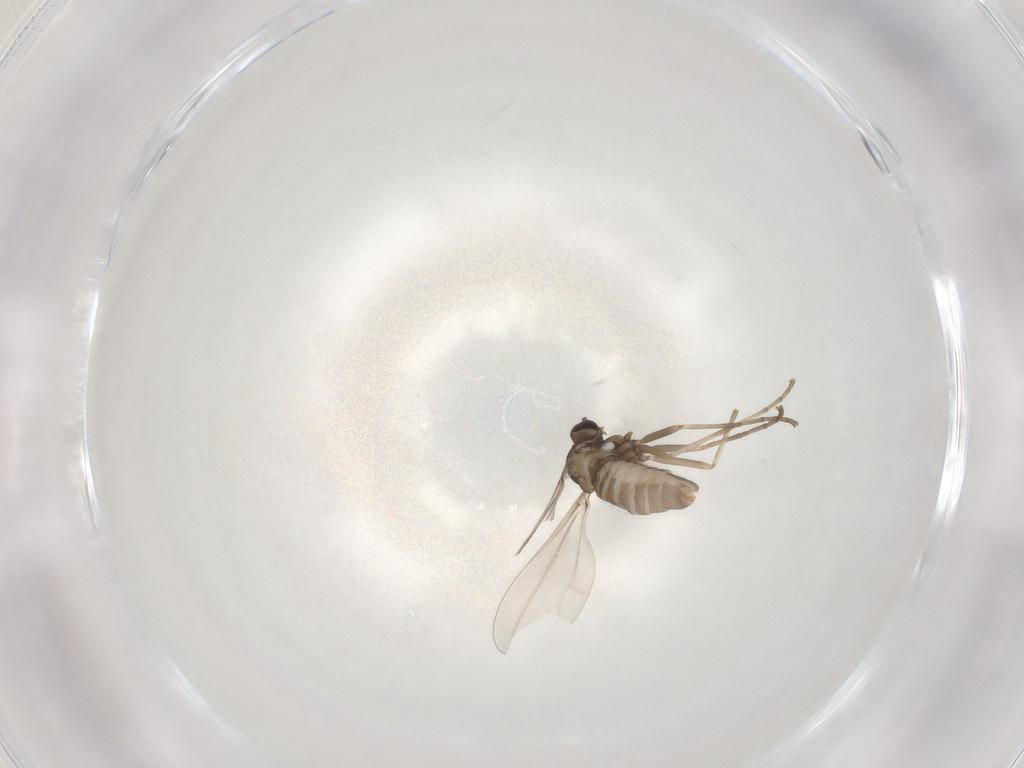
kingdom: Animalia
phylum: Arthropoda
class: Insecta
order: Diptera
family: Cecidomyiidae
